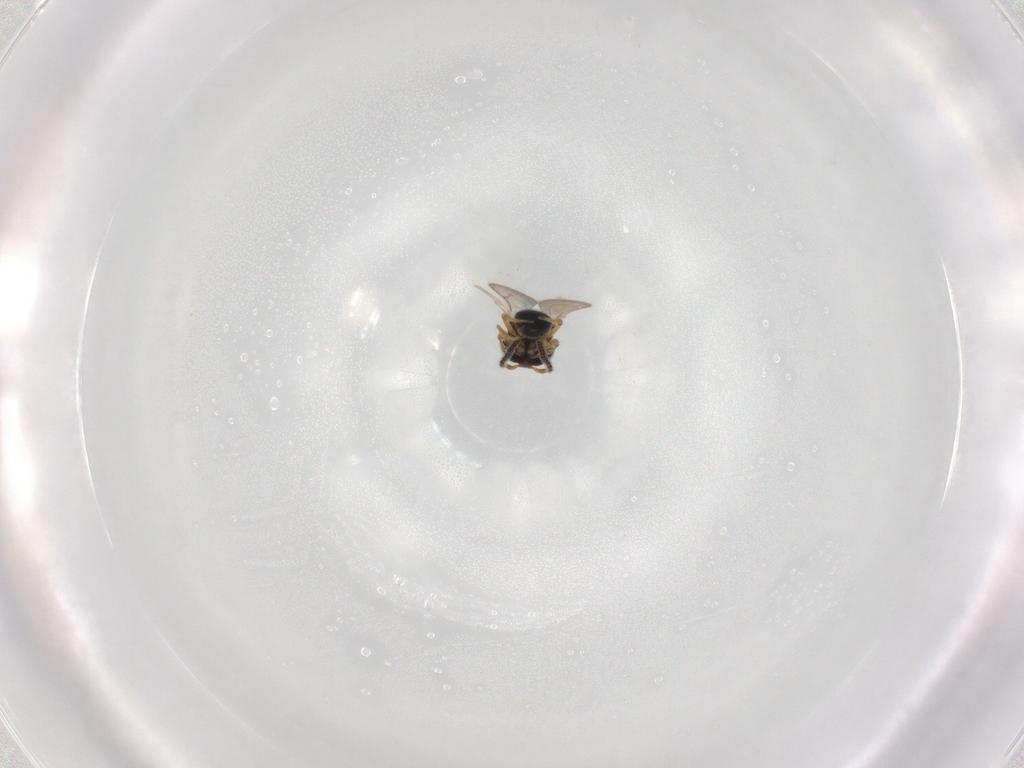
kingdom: Animalia
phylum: Arthropoda
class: Insecta
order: Hymenoptera
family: Scelionidae
